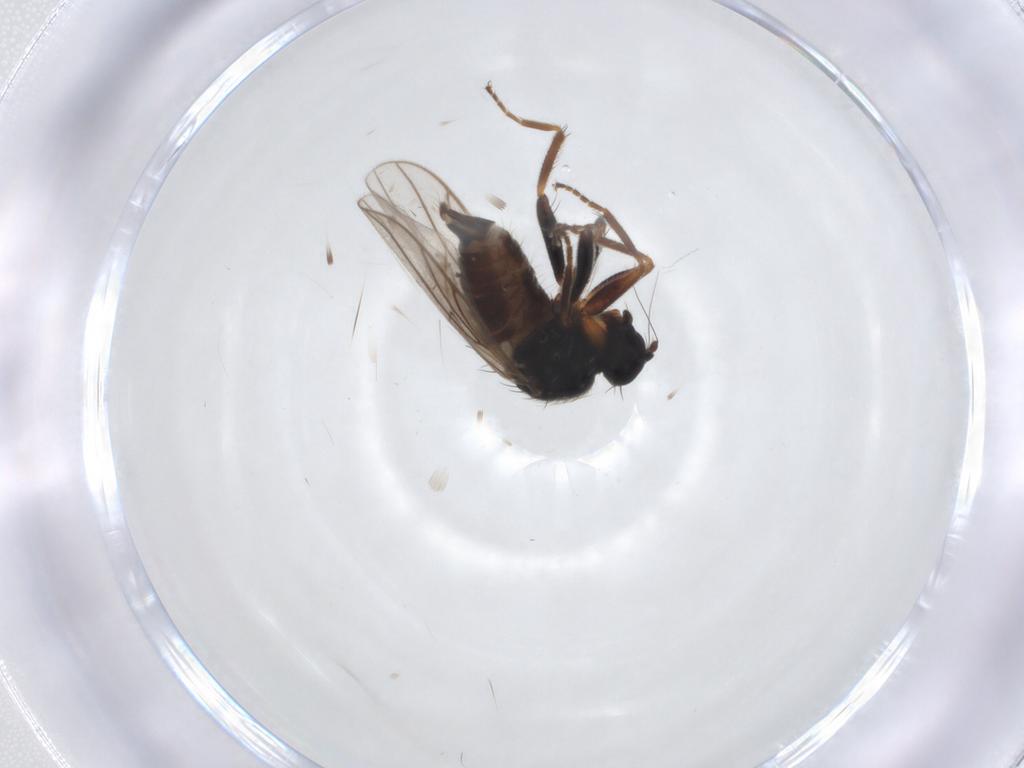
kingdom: Animalia
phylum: Arthropoda
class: Insecta
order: Diptera
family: Cecidomyiidae
